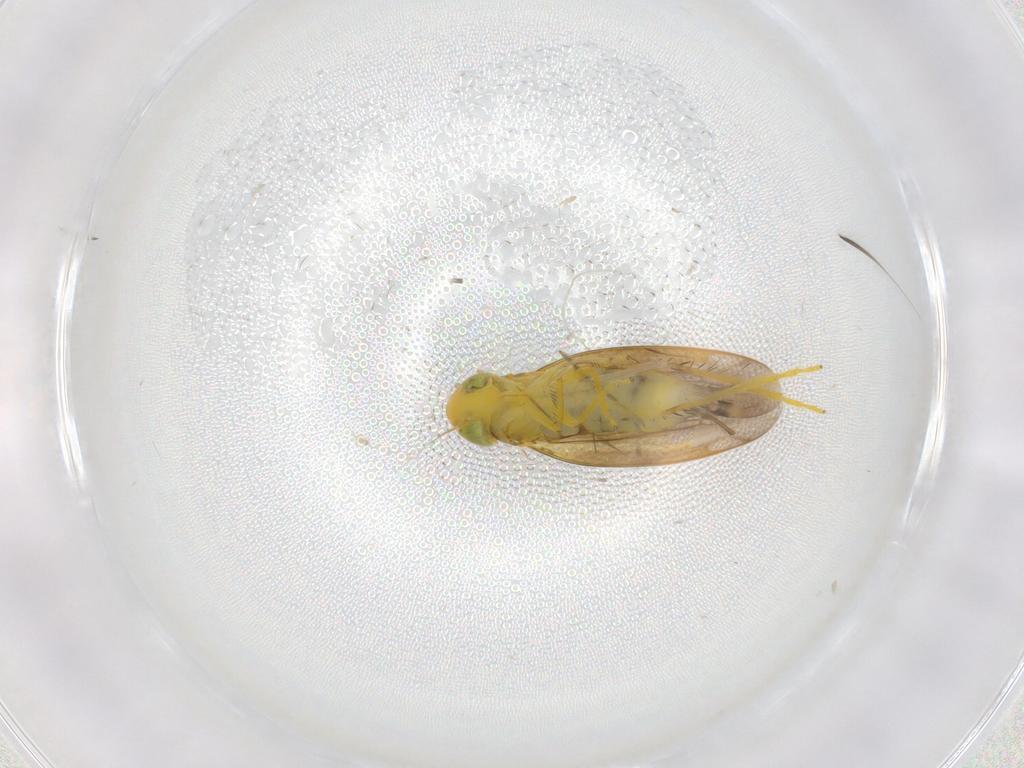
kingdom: Animalia
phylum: Arthropoda
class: Insecta
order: Hemiptera
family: Cicadellidae
